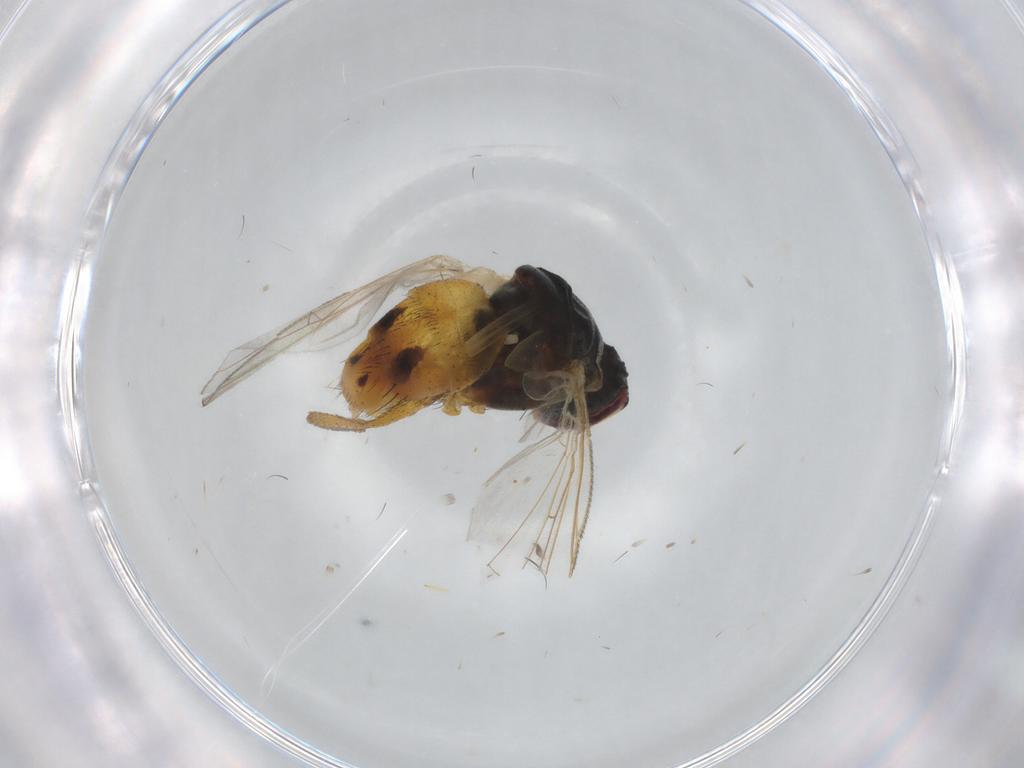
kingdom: Animalia
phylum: Arthropoda
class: Insecta
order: Diptera
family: Muscidae
